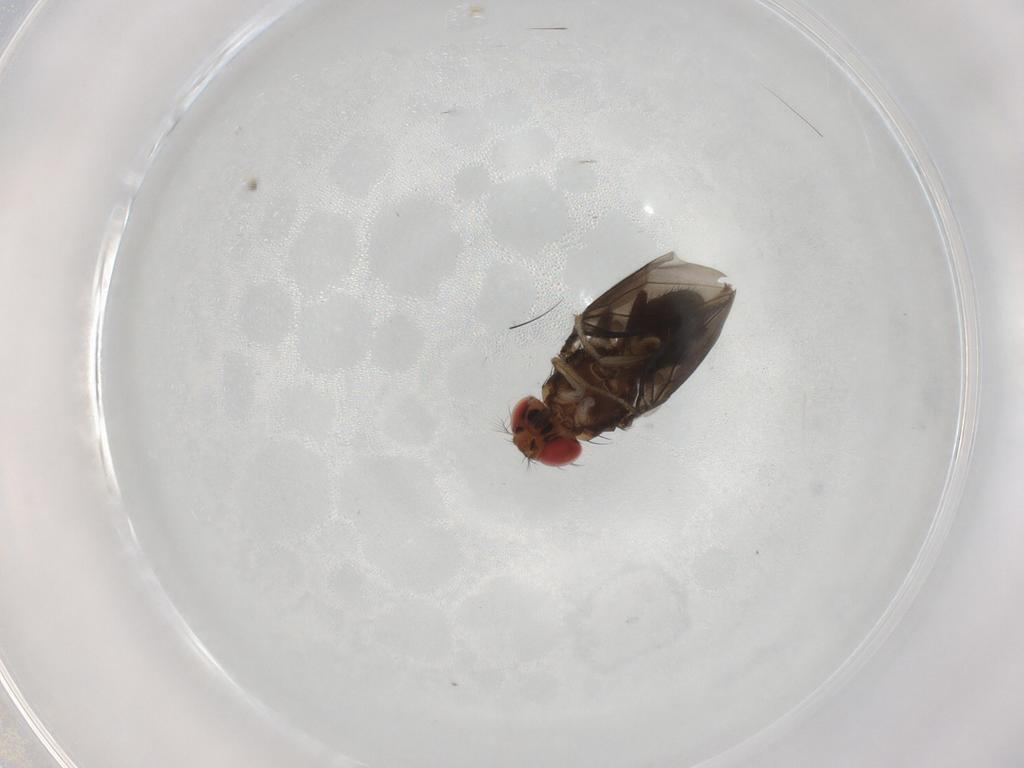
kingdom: Animalia
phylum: Arthropoda
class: Insecta
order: Diptera
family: Drosophilidae
